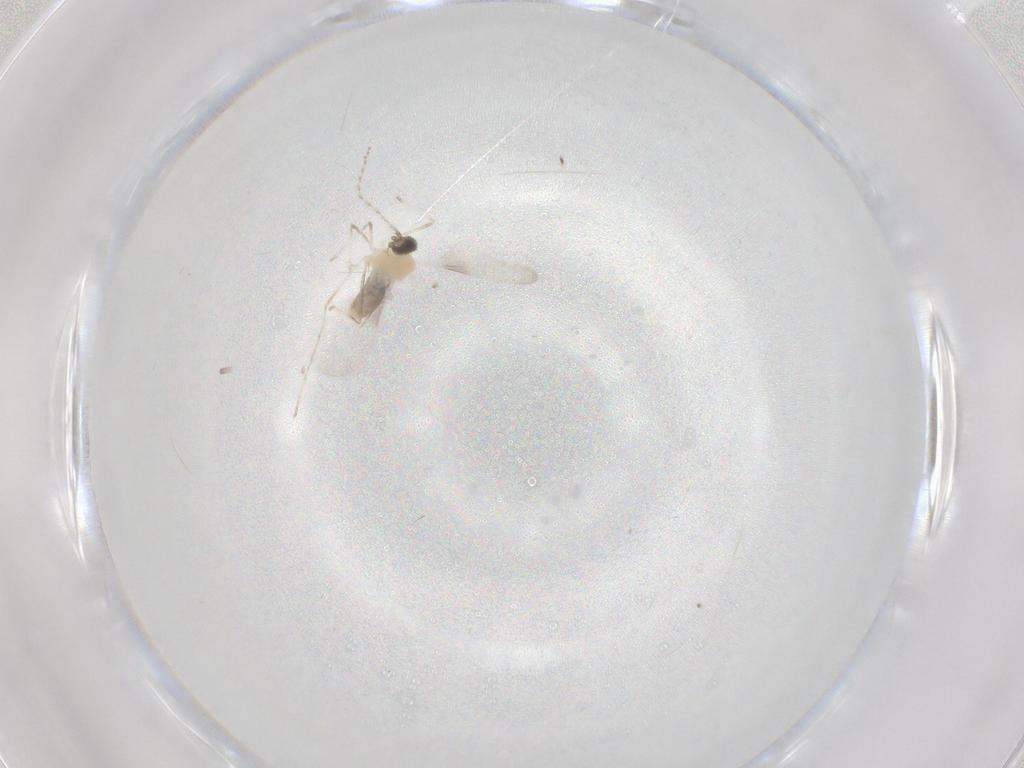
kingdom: Animalia
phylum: Arthropoda
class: Insecta
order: Diptera
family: Cecidomyiidae
